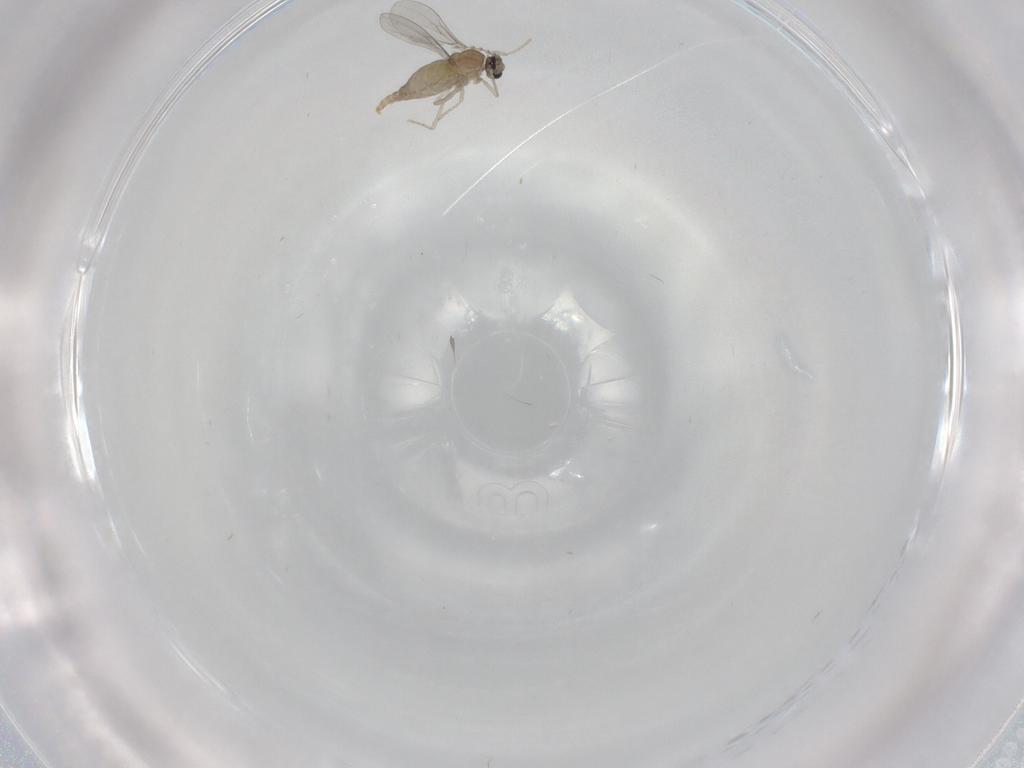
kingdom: Animalia
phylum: Arthropoda
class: Insecta
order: Diptera
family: Cecidomyiidae
